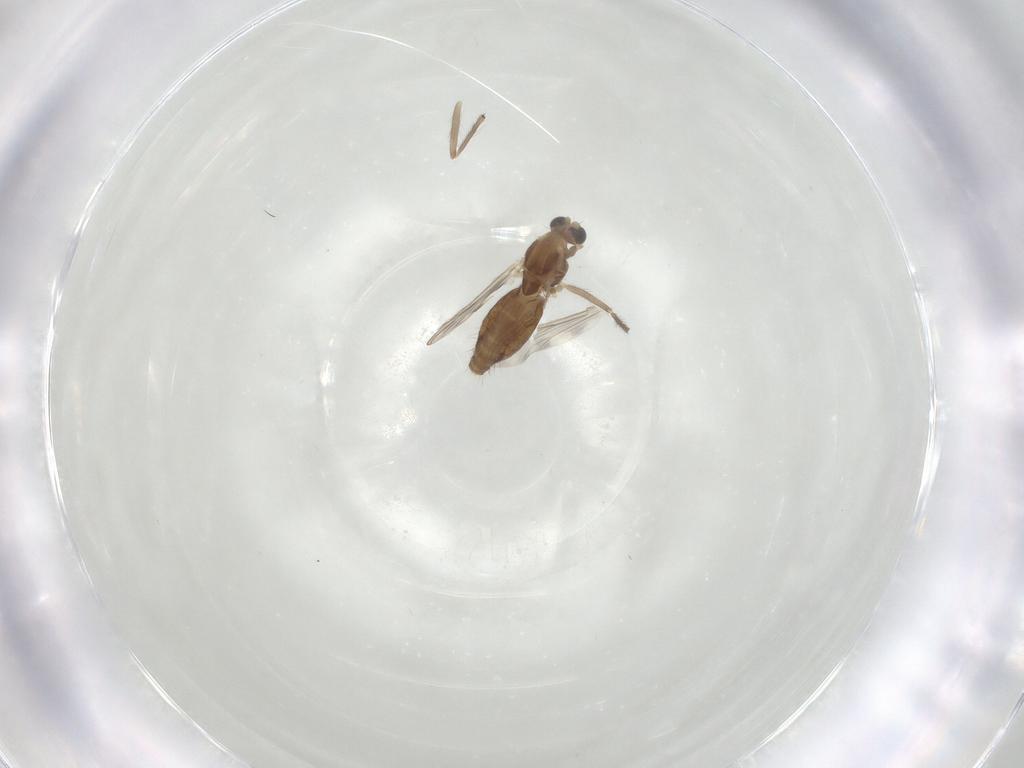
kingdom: Animalia
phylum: Arthropoda
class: Insecta
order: Diptera
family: Chironomidae
